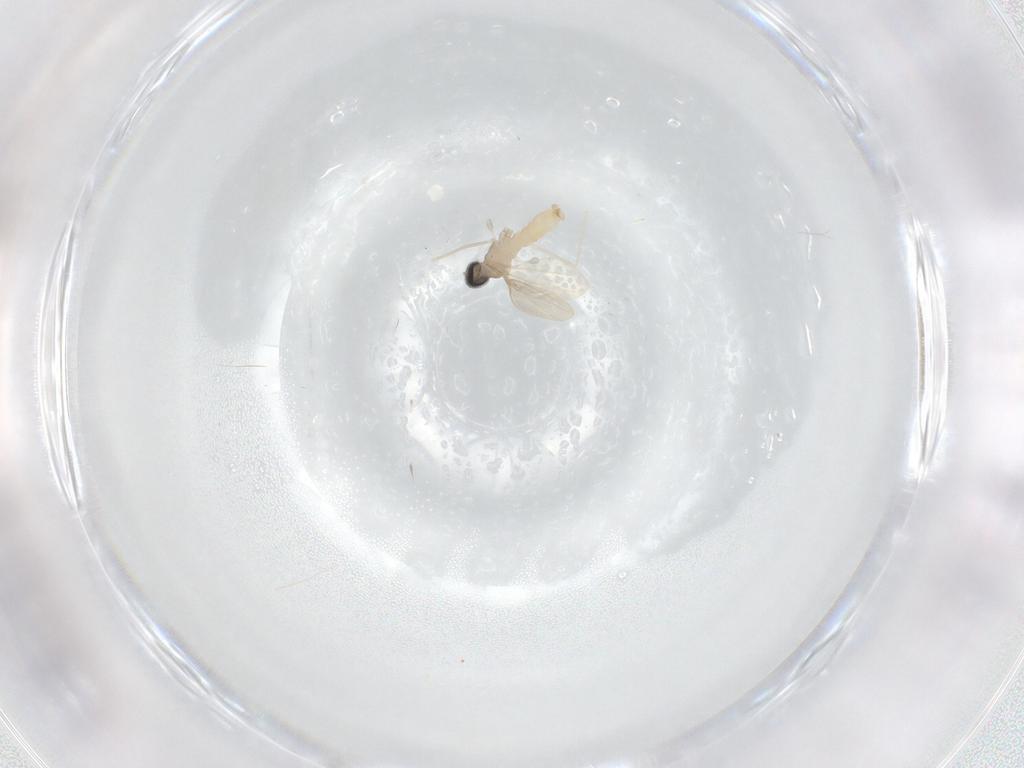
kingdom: Animalia
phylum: Arthropoda
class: Insecta
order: Diptera
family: Cecidomyiidae
